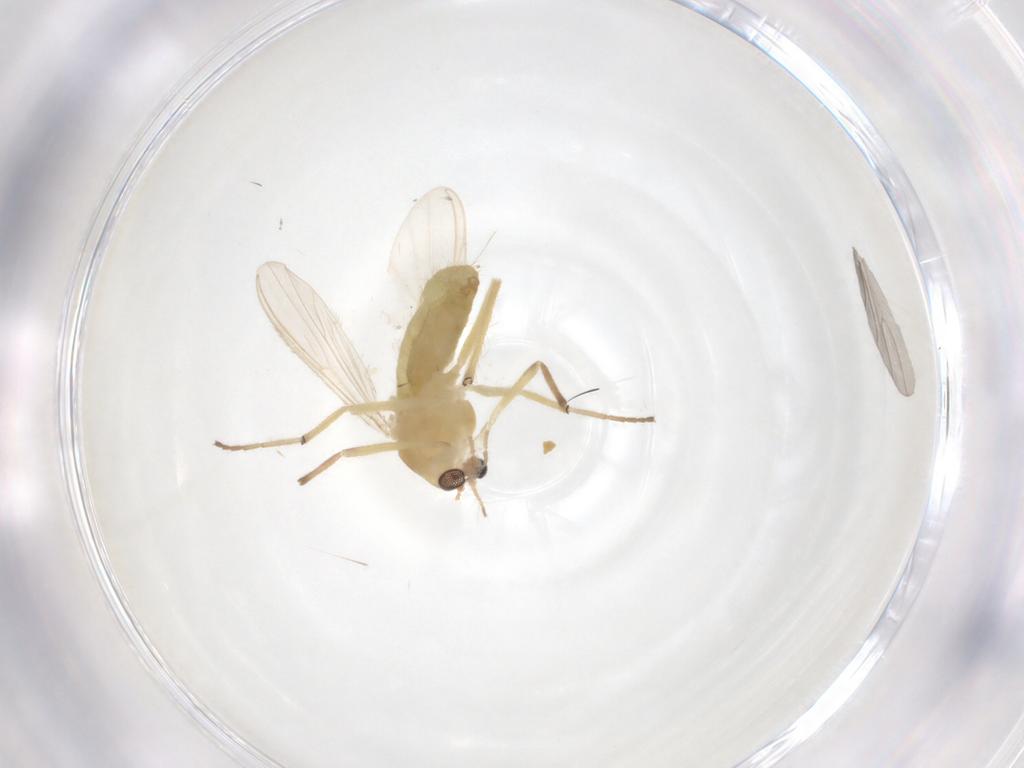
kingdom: Animalia
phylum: Arthropoda
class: Insecta
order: Diptera
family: Chironomidae
